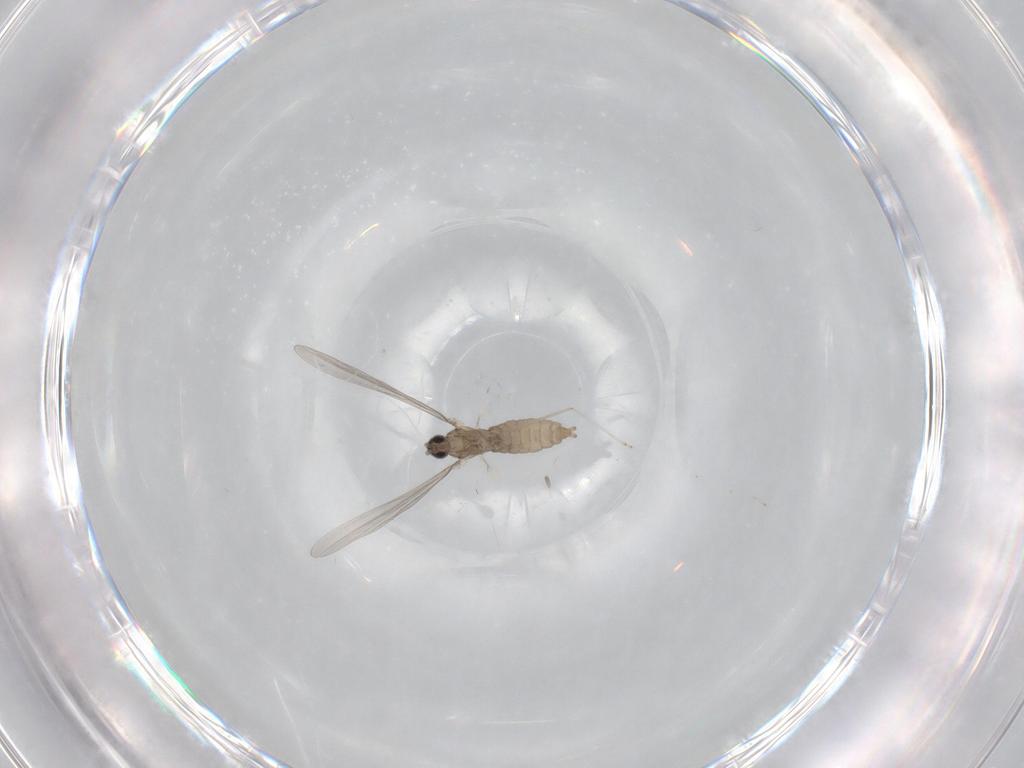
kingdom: Animalia
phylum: Arthropoda
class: Insecta
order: Diptera
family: Cecidomyiidae
